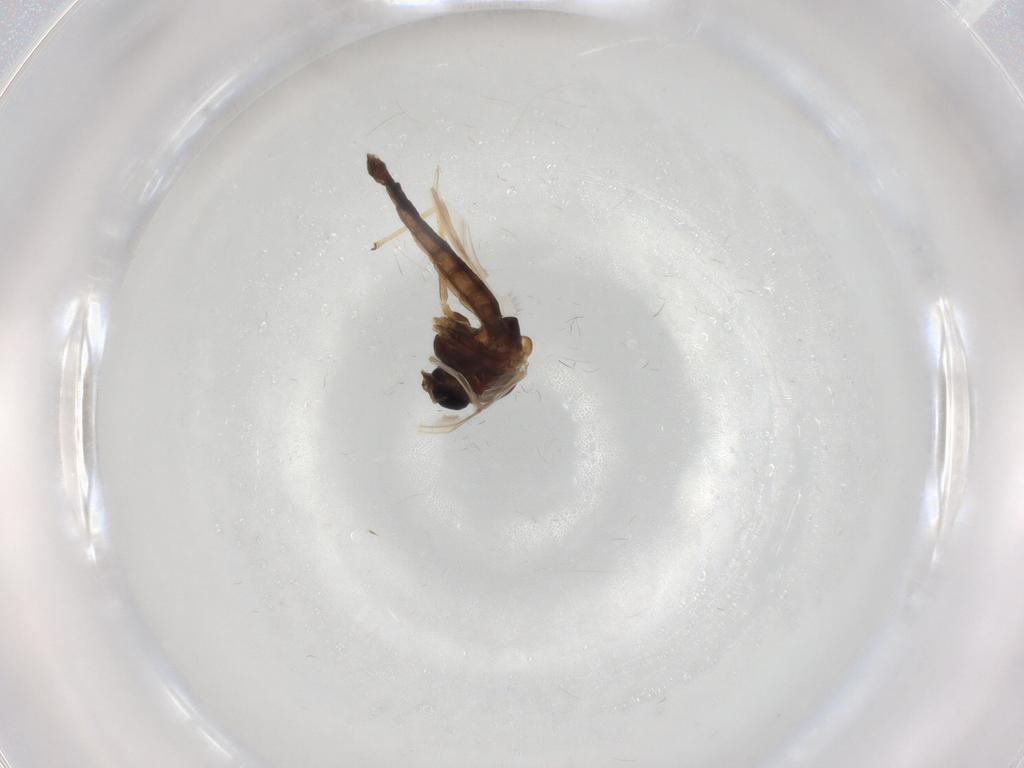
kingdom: Animalia
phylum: Arthropoda
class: Insecta
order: Diptera
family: Chironomidae
